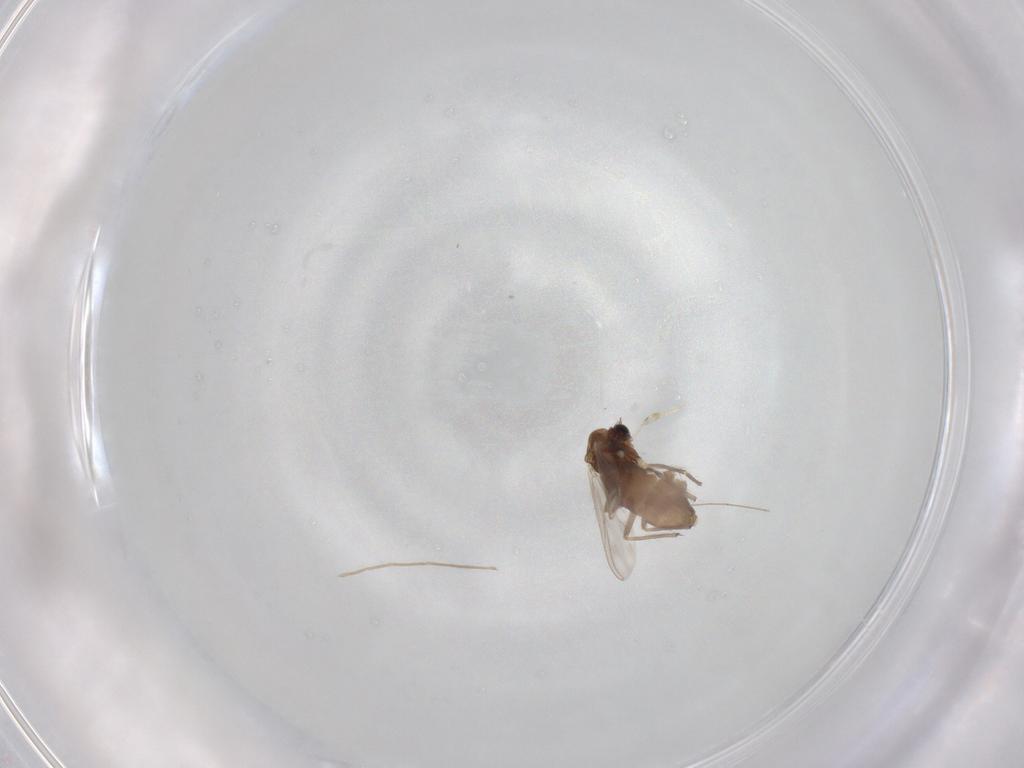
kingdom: Animalia
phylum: Arthropoda
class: Insecta
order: Diptera
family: Sciaridae
